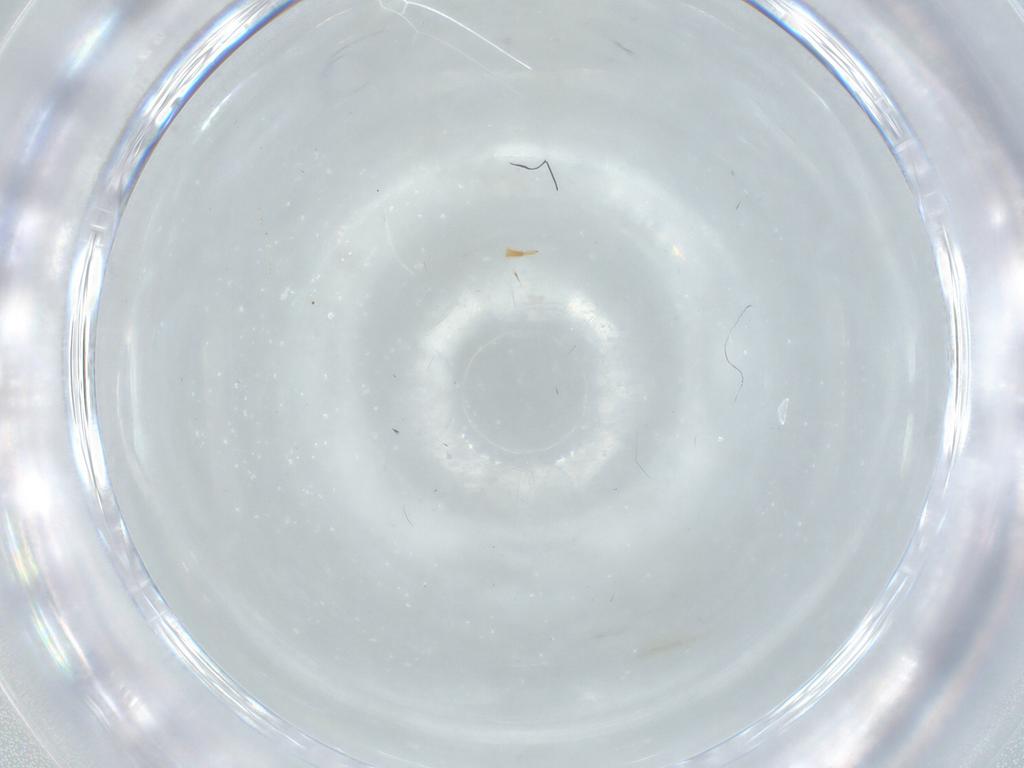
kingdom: Animalia
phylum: Arthropoda
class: Insecta
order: Diptera
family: Cecidomyiidae
